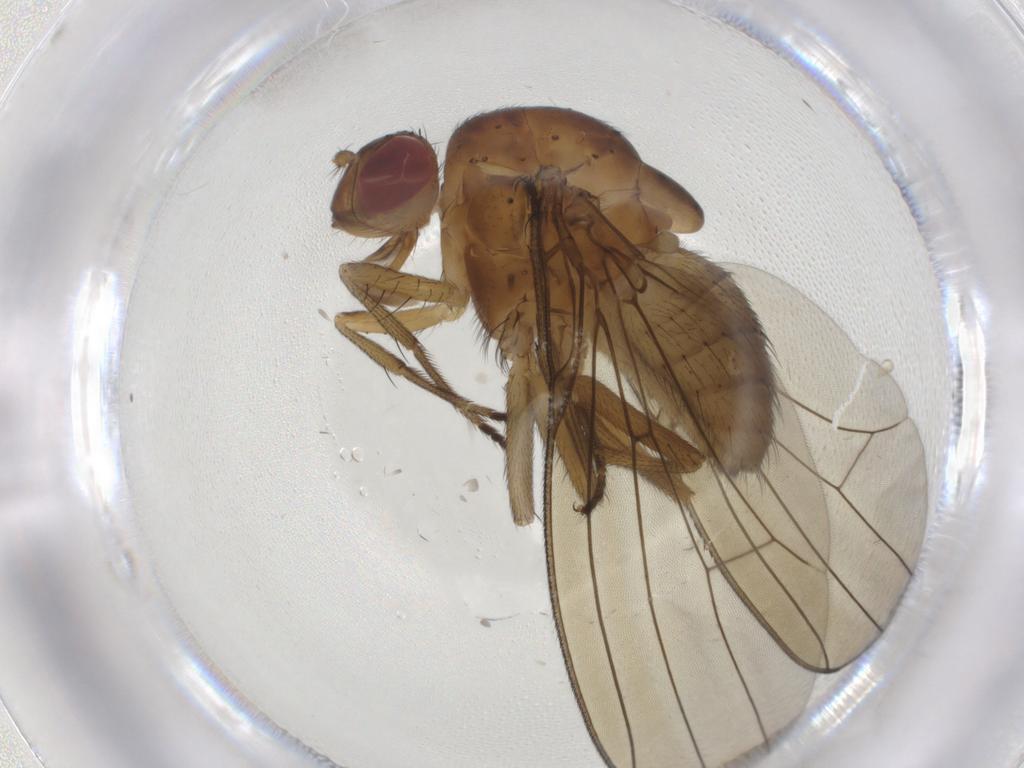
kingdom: Animalia
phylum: Arthropoda
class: Insecta
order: Diptera
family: Lauxaniidae
